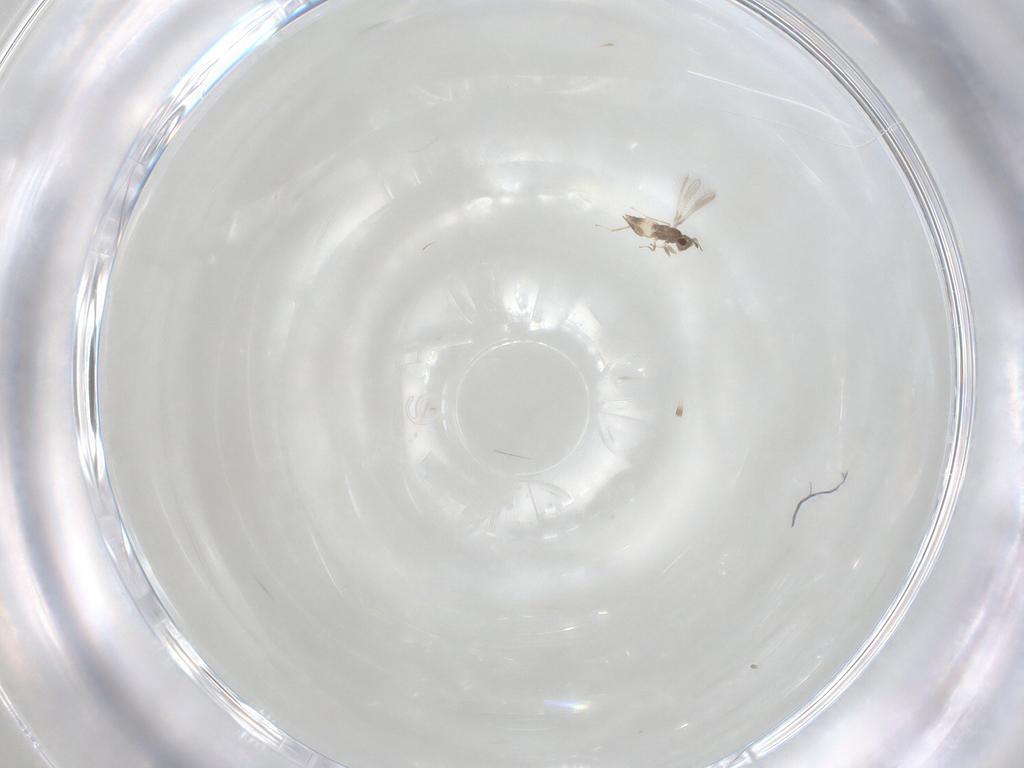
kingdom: Animalia
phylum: Arthropoda
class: Insecta
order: Hymenoptera
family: Mymaridae
